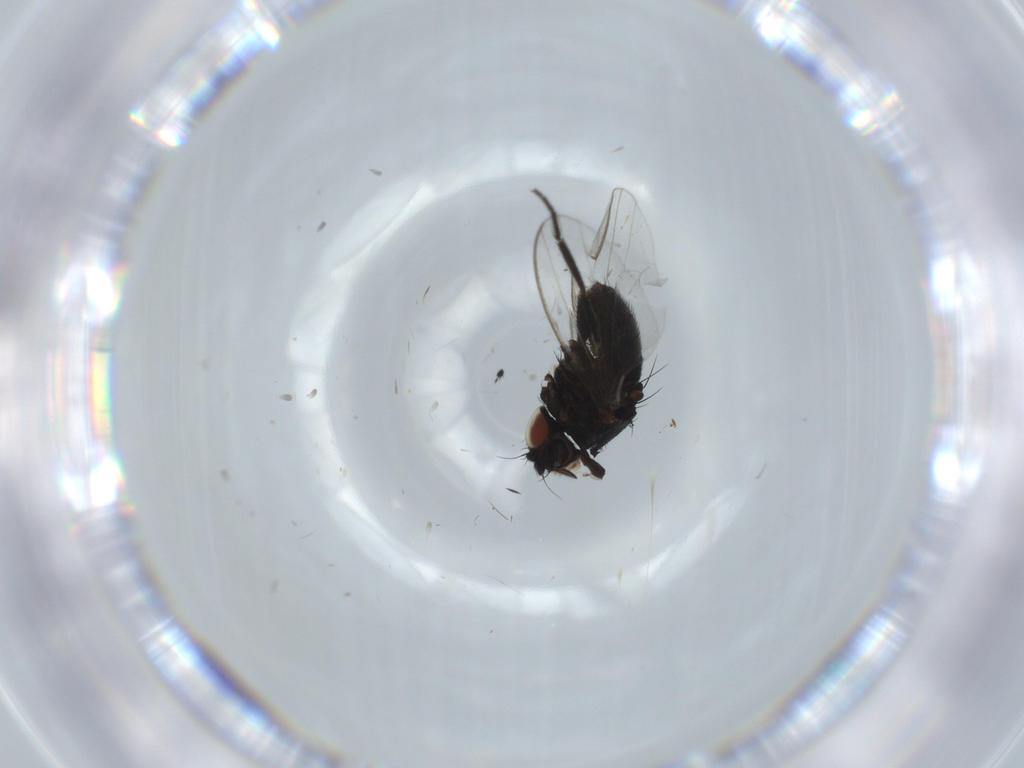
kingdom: Animalia
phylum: Arthropoda
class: Insecta
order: Diptera
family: Milichiidae
